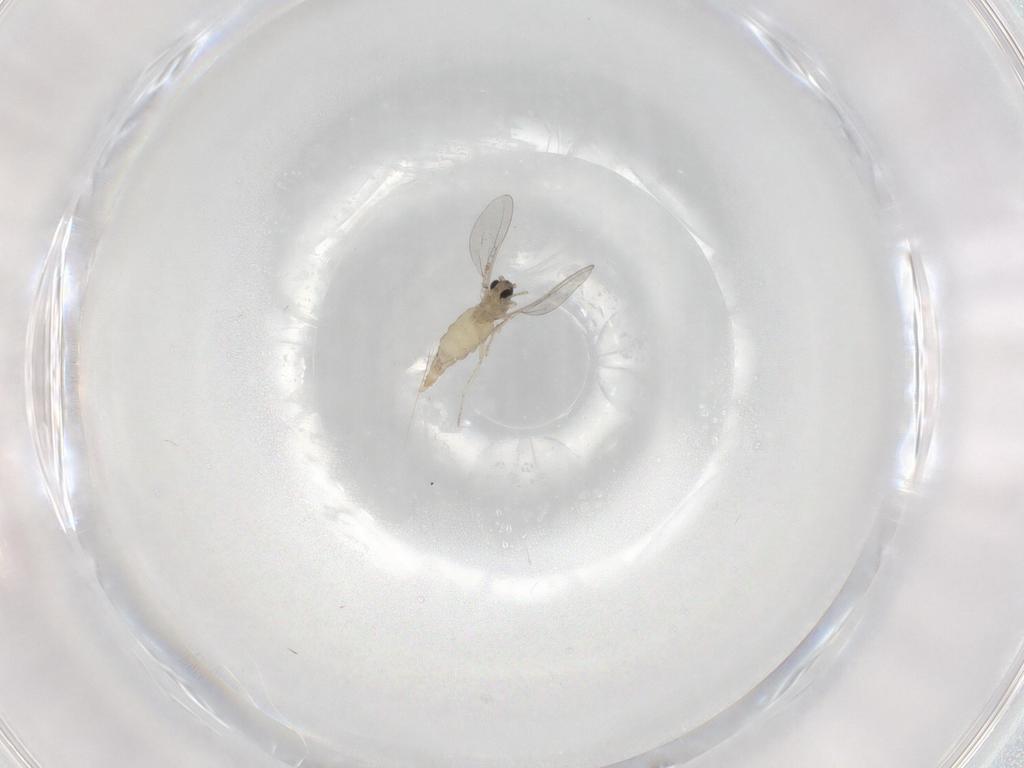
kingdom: Animalia
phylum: Arthropoda
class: Insecta
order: Diptera
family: Cecidomyiidae
